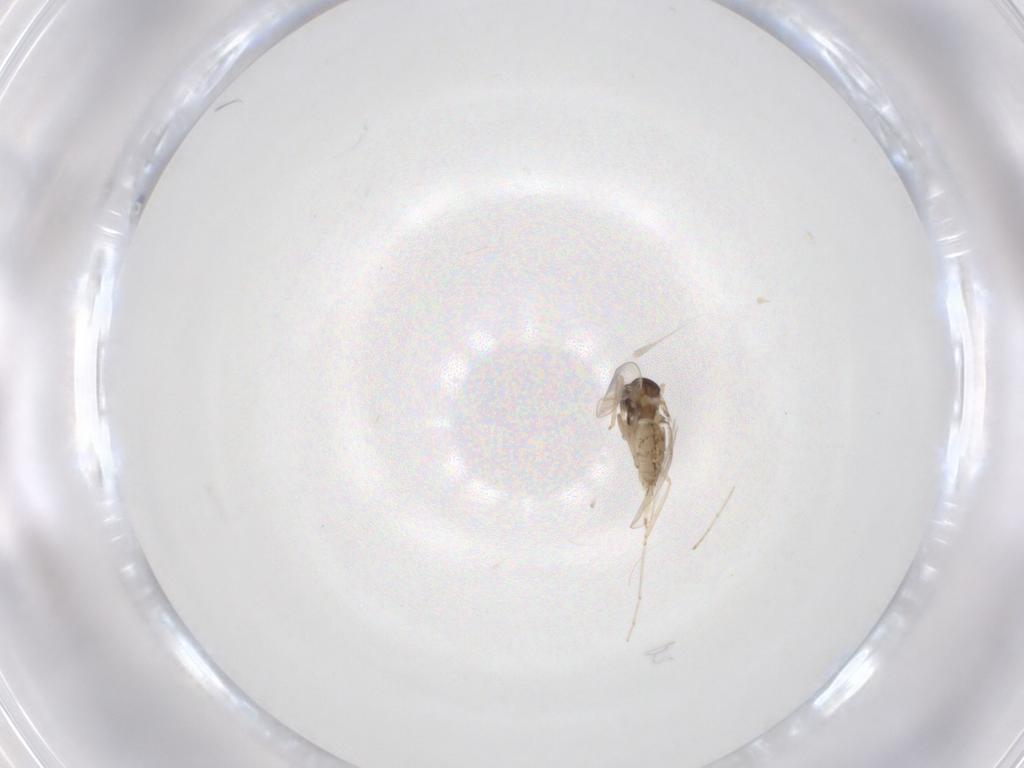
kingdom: Animalia
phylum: Arthropoda
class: Insecta
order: Diptera
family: Cecidomyiidae
